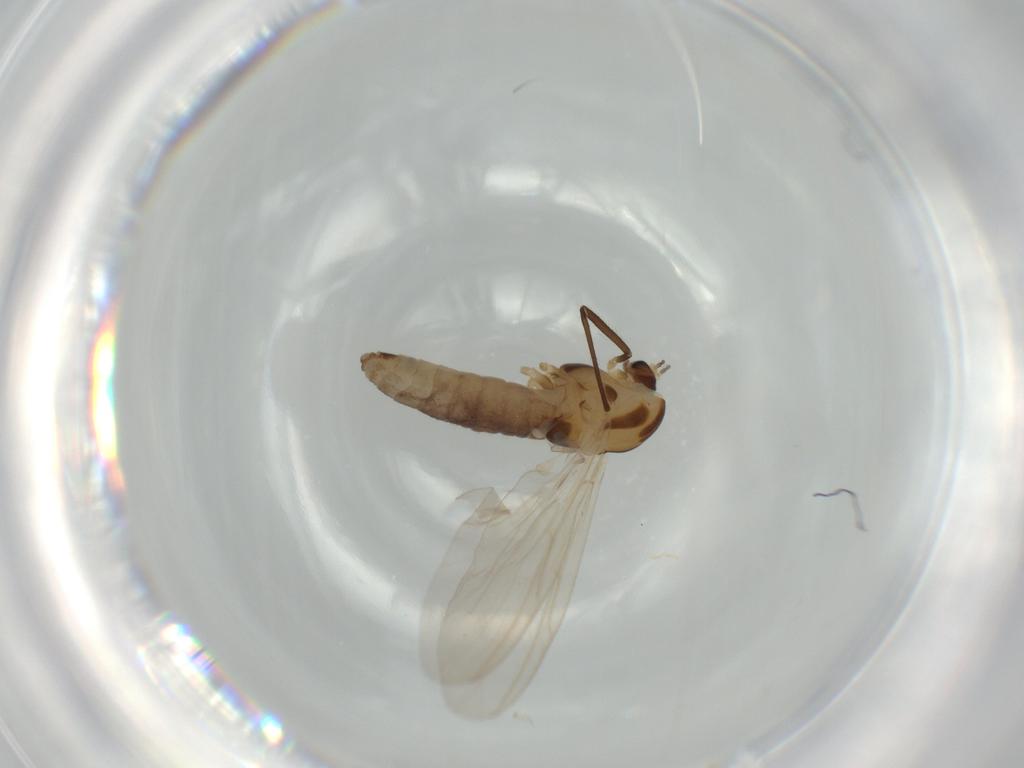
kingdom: Animalia
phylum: Arthropoda
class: Insecta
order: Diptera
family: Chironomidae
